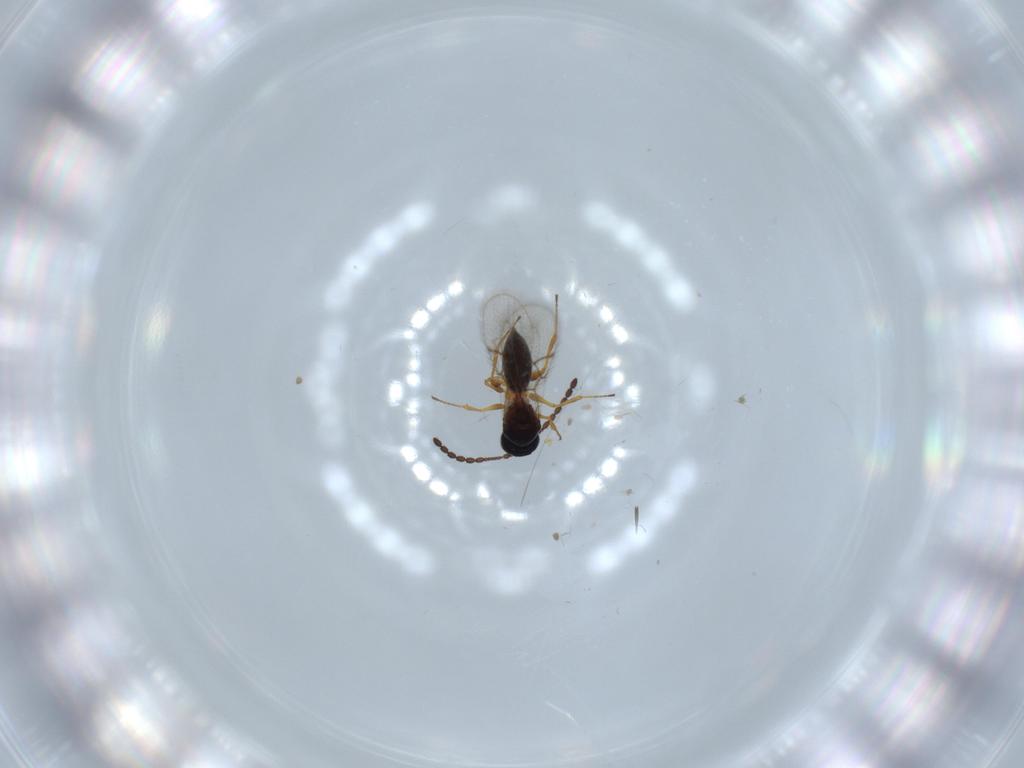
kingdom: Animalia
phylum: Arthropoda
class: Insecta
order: Hymenoptera
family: Figitidae
